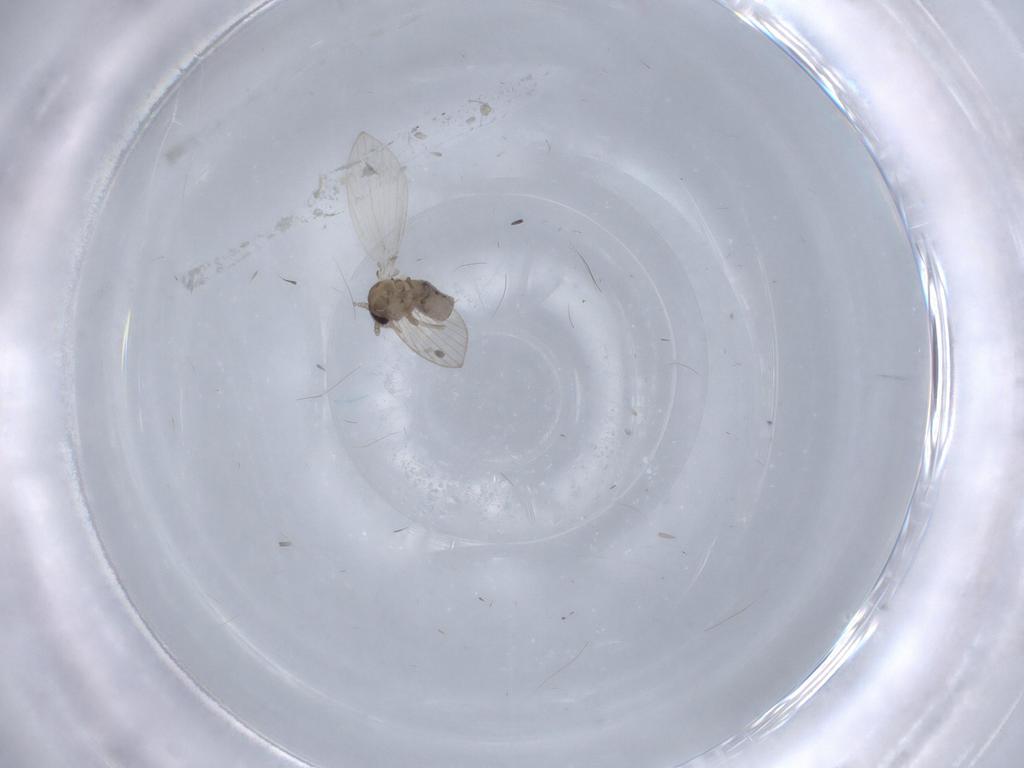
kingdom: Animalia
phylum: Arthropoda
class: Insecta
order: Diptera
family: Psychodidae
